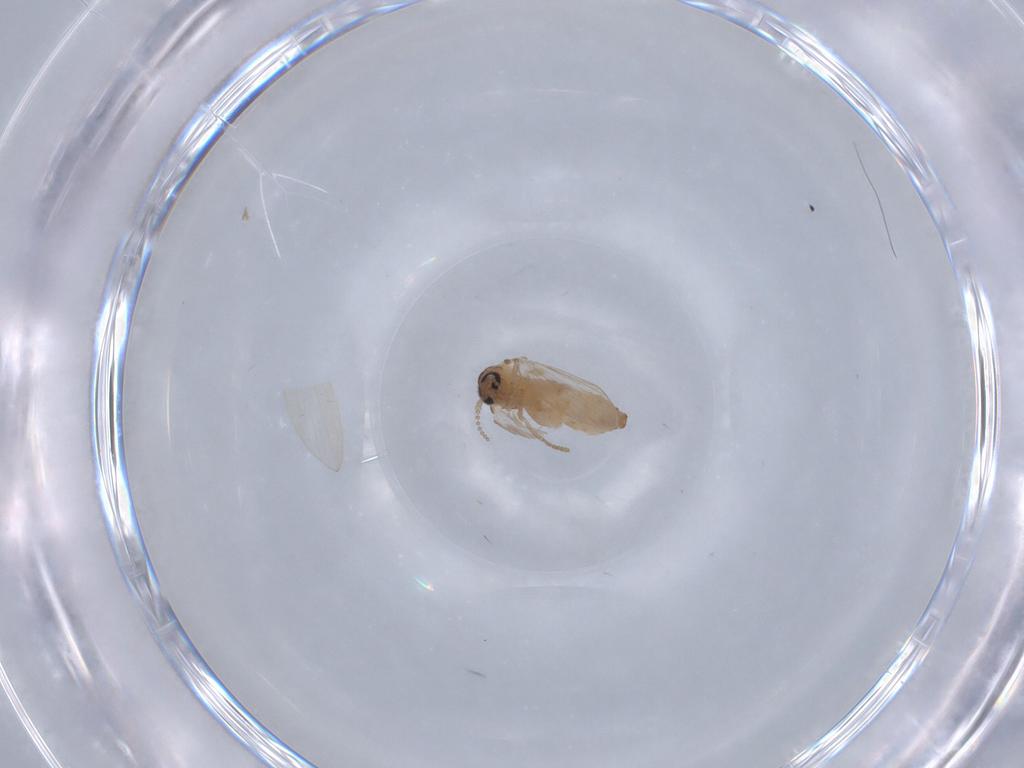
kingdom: Animalia
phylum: Arthropoda
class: Insecta
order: Diptera
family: Psychodidae
